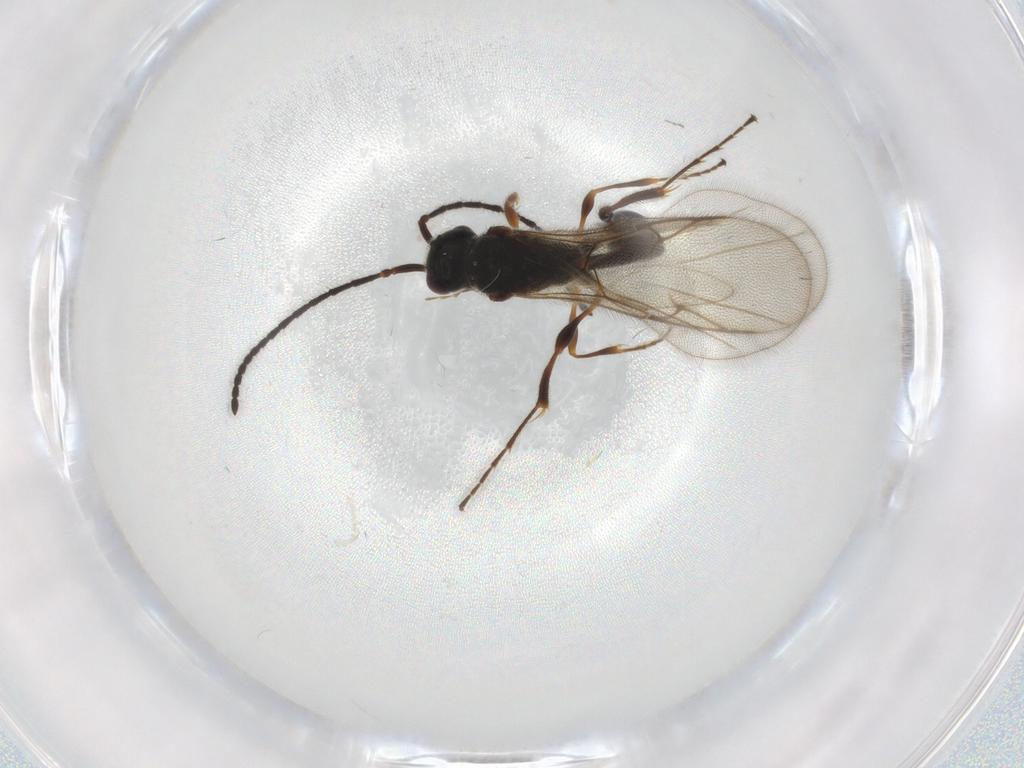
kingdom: Animalia
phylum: Arthropoda
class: Insecta
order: Hymenoptera
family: Diapriidae
